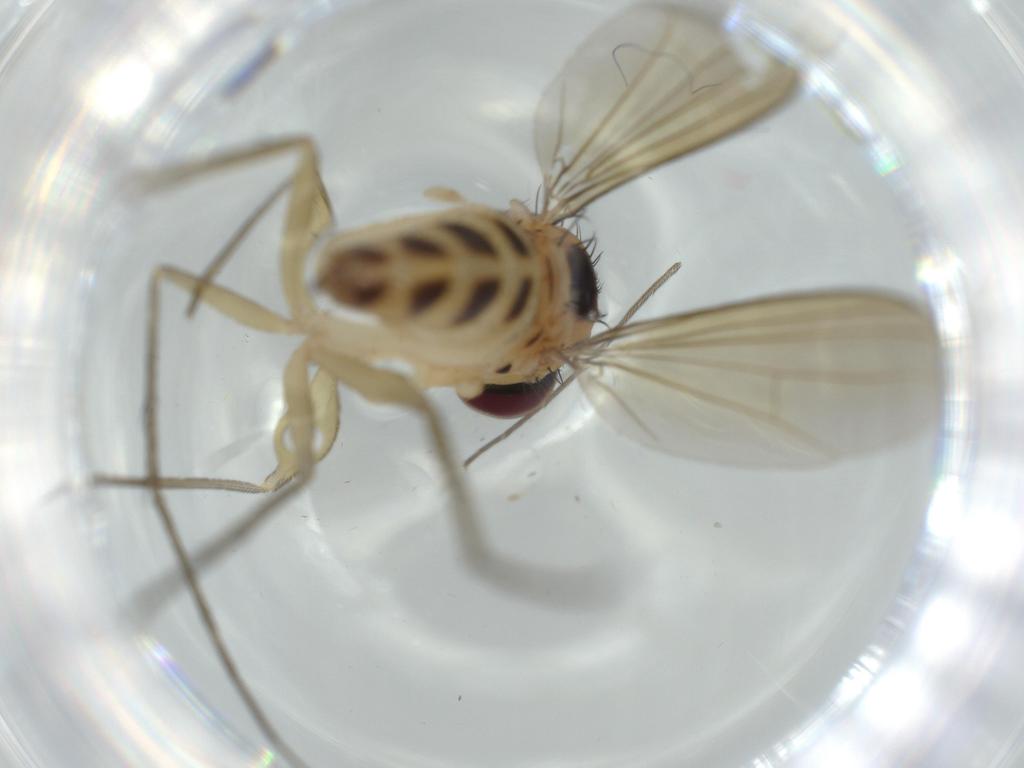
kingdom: Animalia
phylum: Arthropoda
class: Insecta
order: Diptera
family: Dolichopodidae
